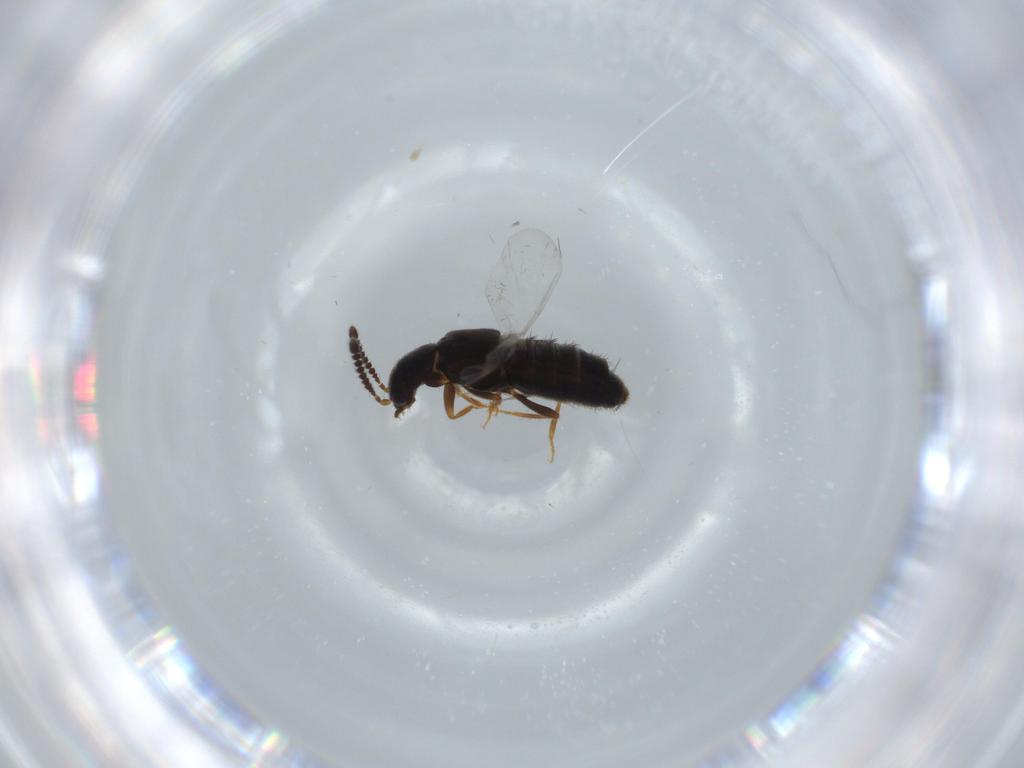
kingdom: Animalia
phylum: Arthropoda
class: Insecta
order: Coleoptera
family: Staphylinidae
